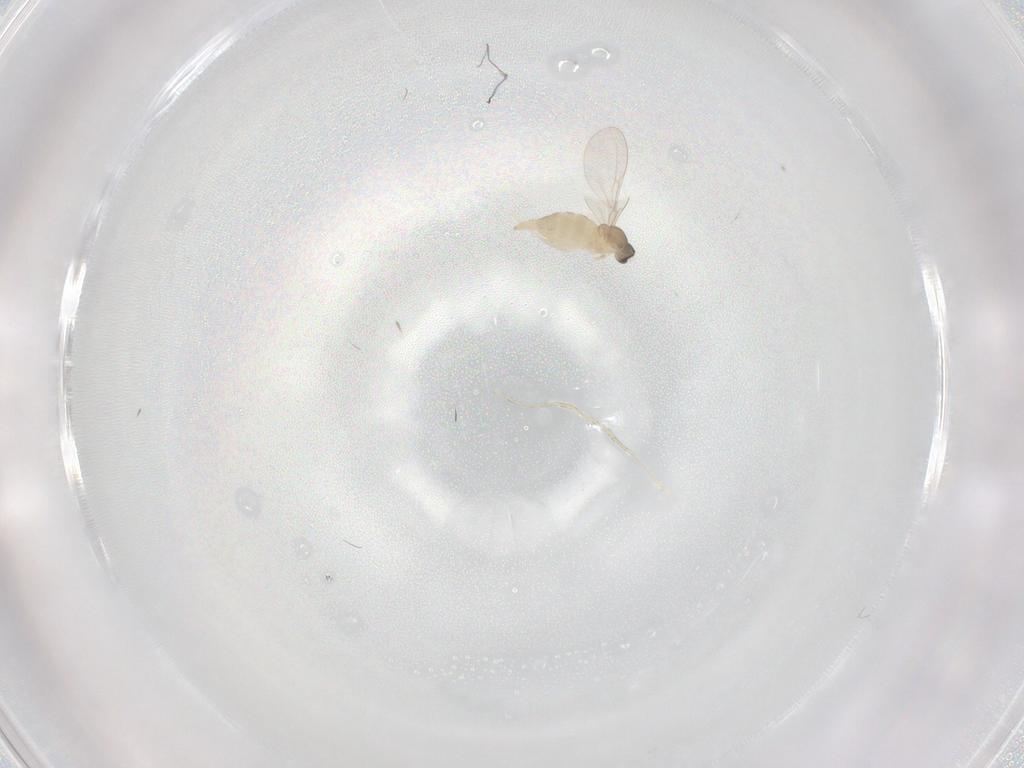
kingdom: Animalia
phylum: Arthropoda
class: Insecta
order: Diptera
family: Cecidomyiidae
